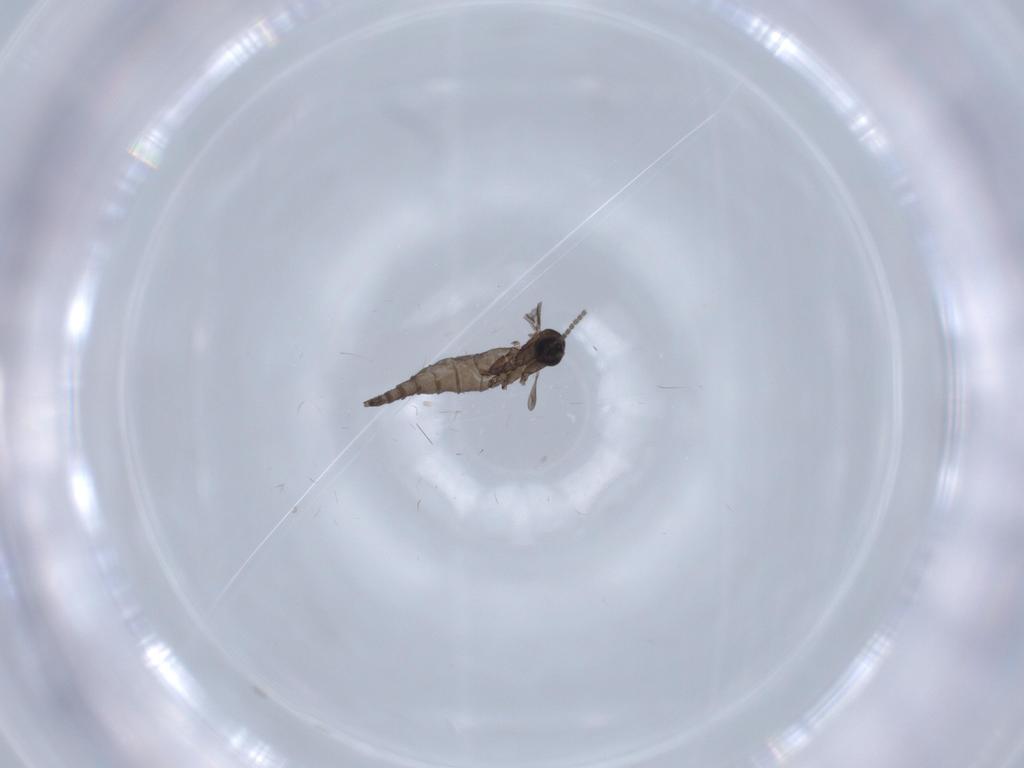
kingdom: Animalia
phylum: Arthropoda
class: Insecta
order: Diptera
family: Sciaridae
